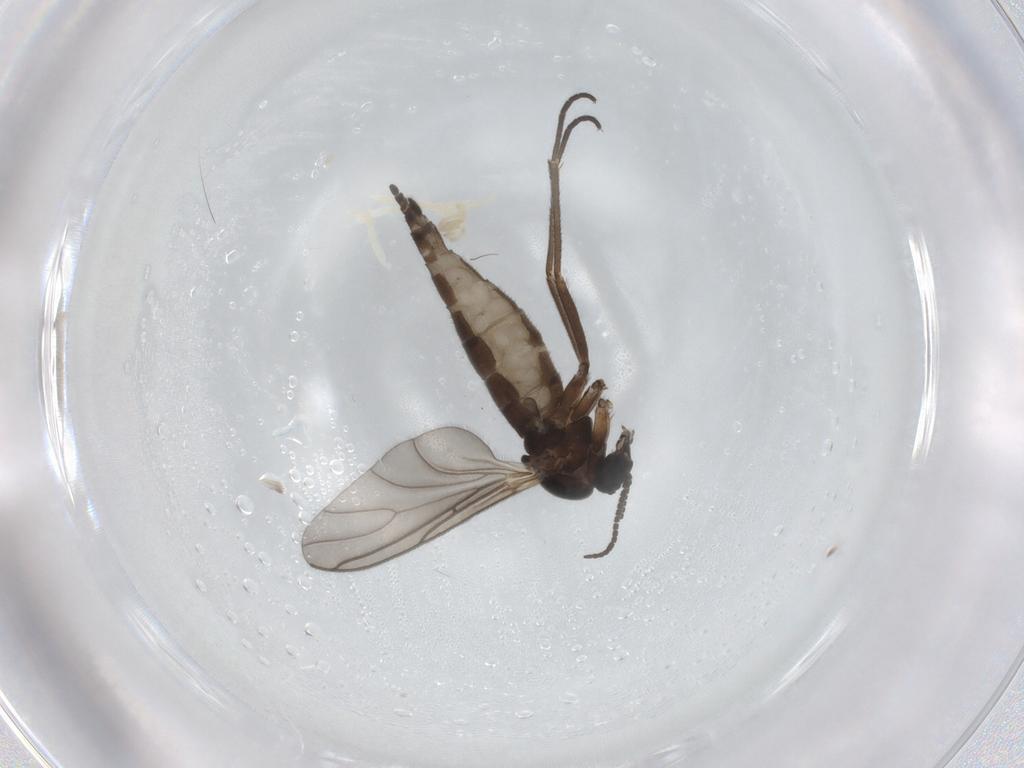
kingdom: Animalia
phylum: Arthropoda
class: Insecta
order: Diptera
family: Sciaridae
